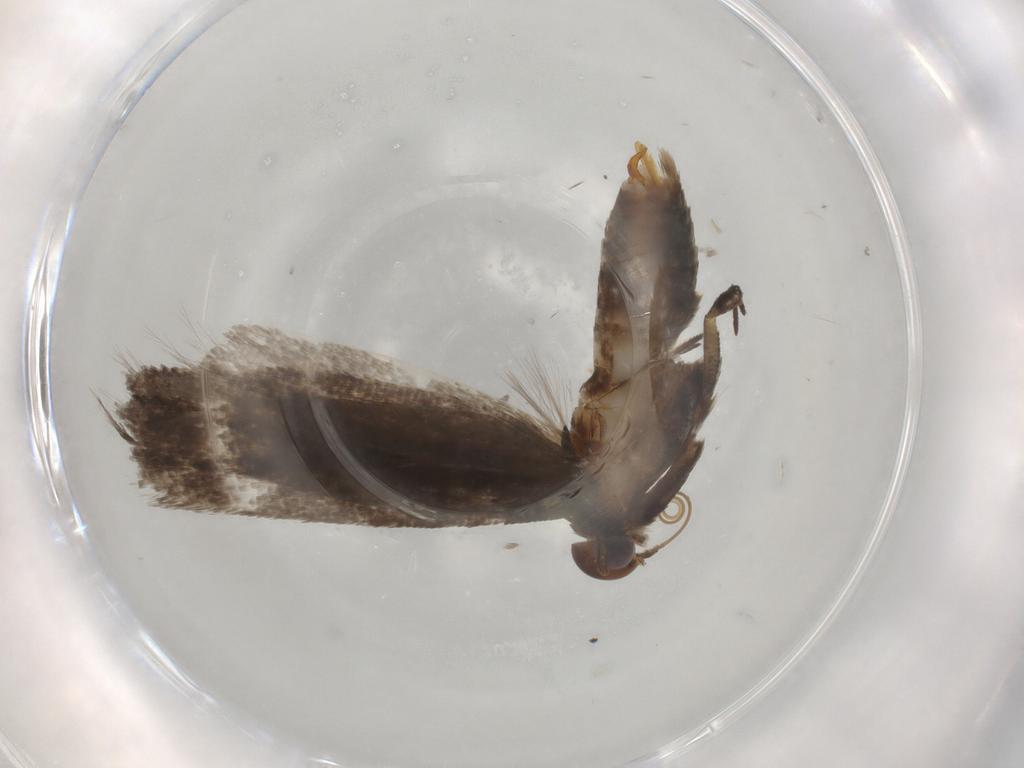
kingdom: Animalia
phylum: Arthropoda
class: Insecta
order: Lepidoptera
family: Gelechiidae
